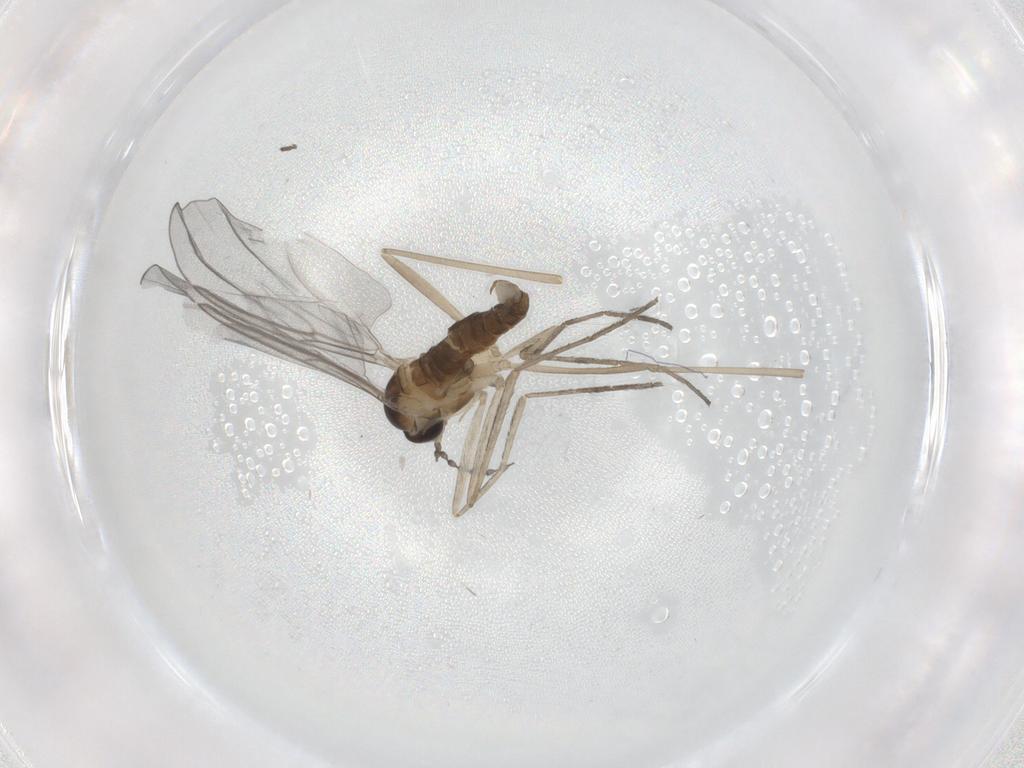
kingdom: Animalia
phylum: Arthropoda
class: Insecta
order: Diptera
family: Cecidomyiidae
